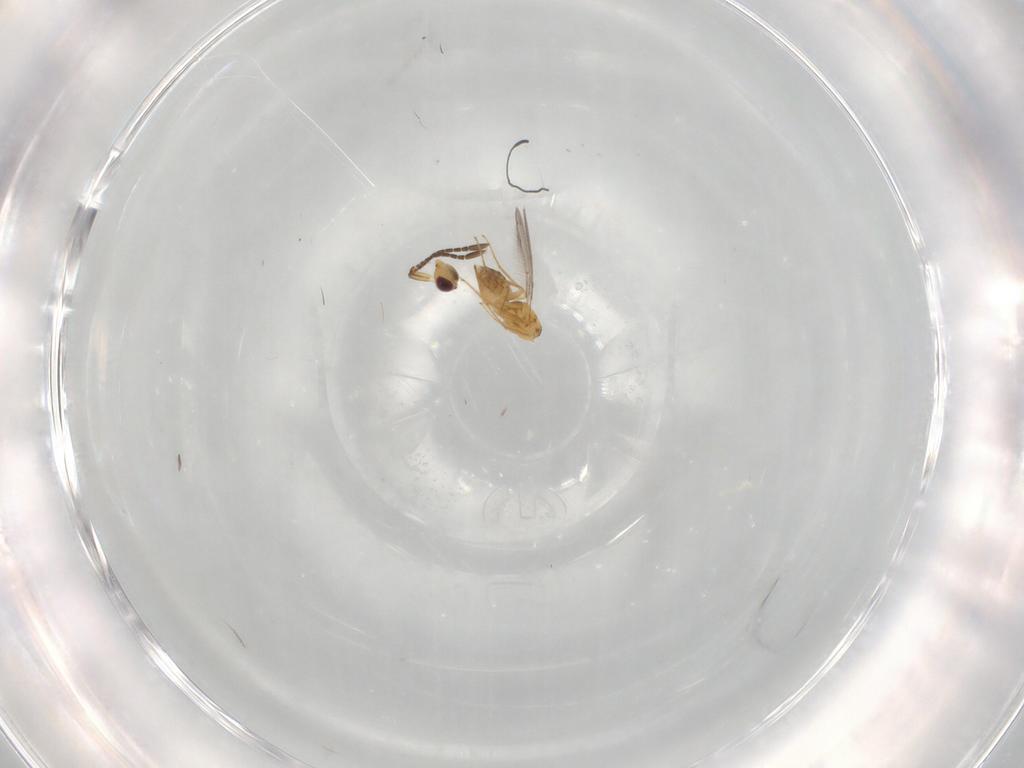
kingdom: Animalia
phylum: Arthropoda
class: Insecta
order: Hymenoptera
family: Mymaridae
